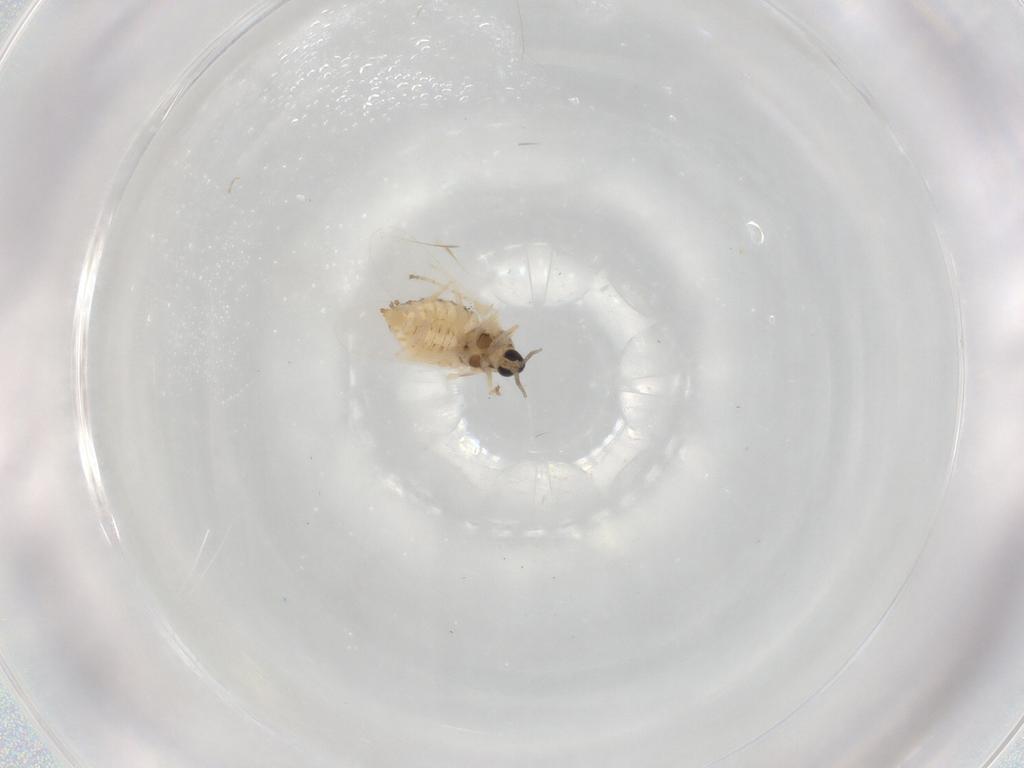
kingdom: Animalia
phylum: Arthropoda
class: Insecta
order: Diptera
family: Cecidomyiidae
